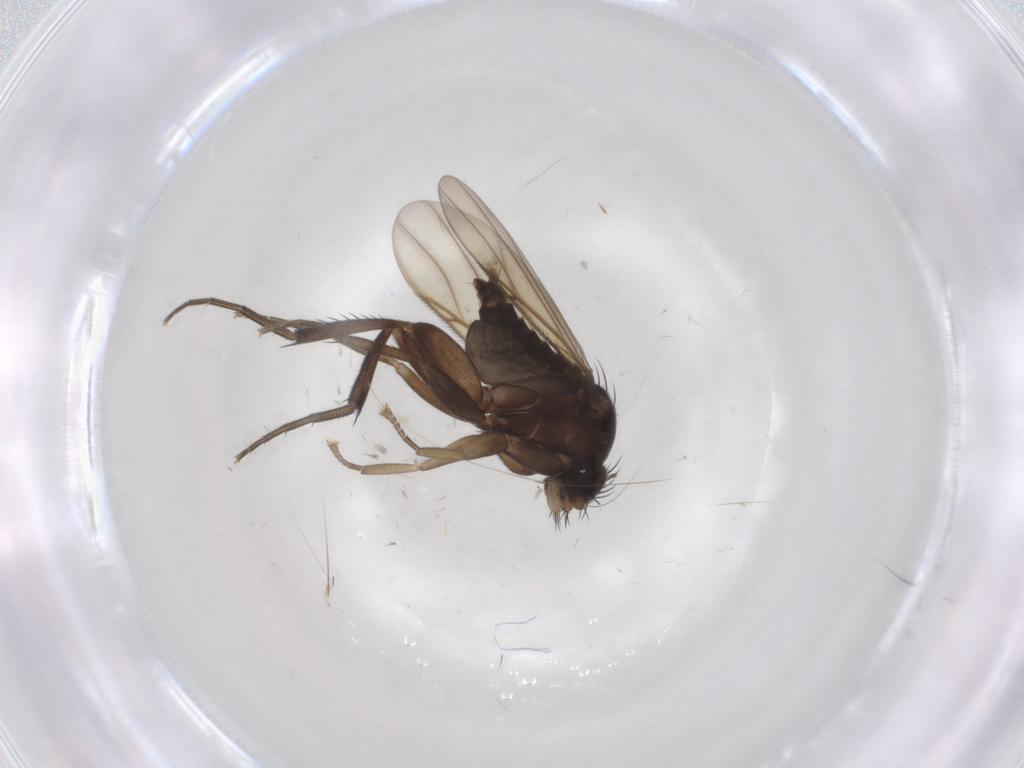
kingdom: Animalia
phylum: Arthropoda
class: Insecta
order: Diptera
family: Phoridae
